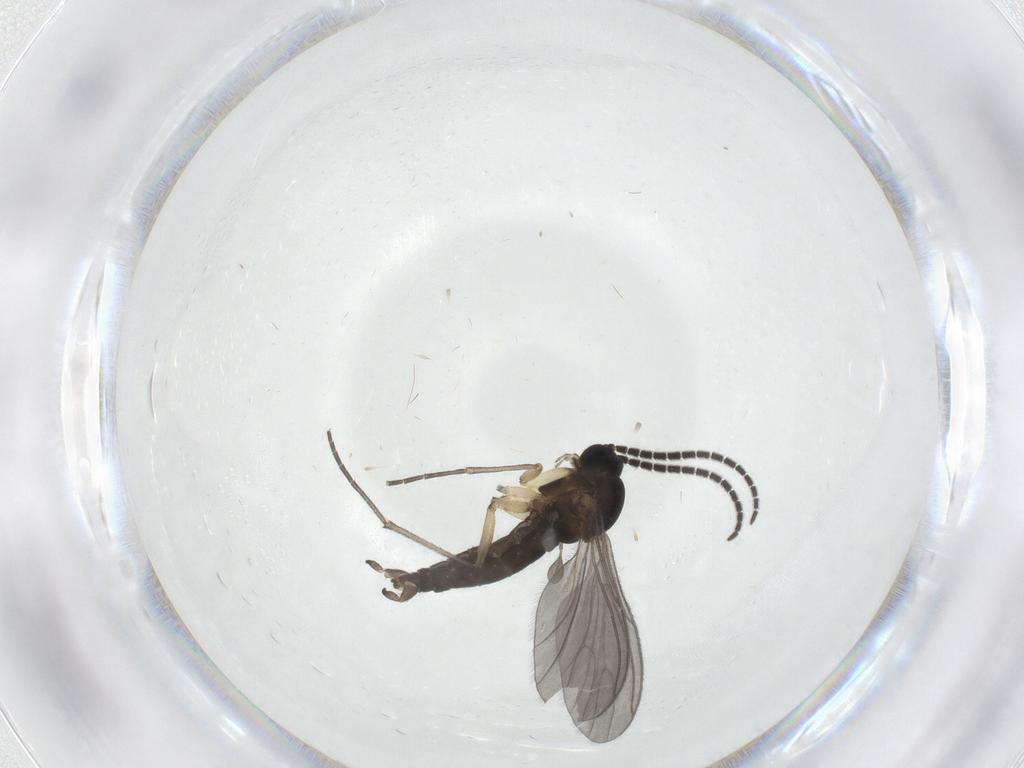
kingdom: Animalia
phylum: Arthropoda
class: Insecta
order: Diptera
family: Sciaridae
